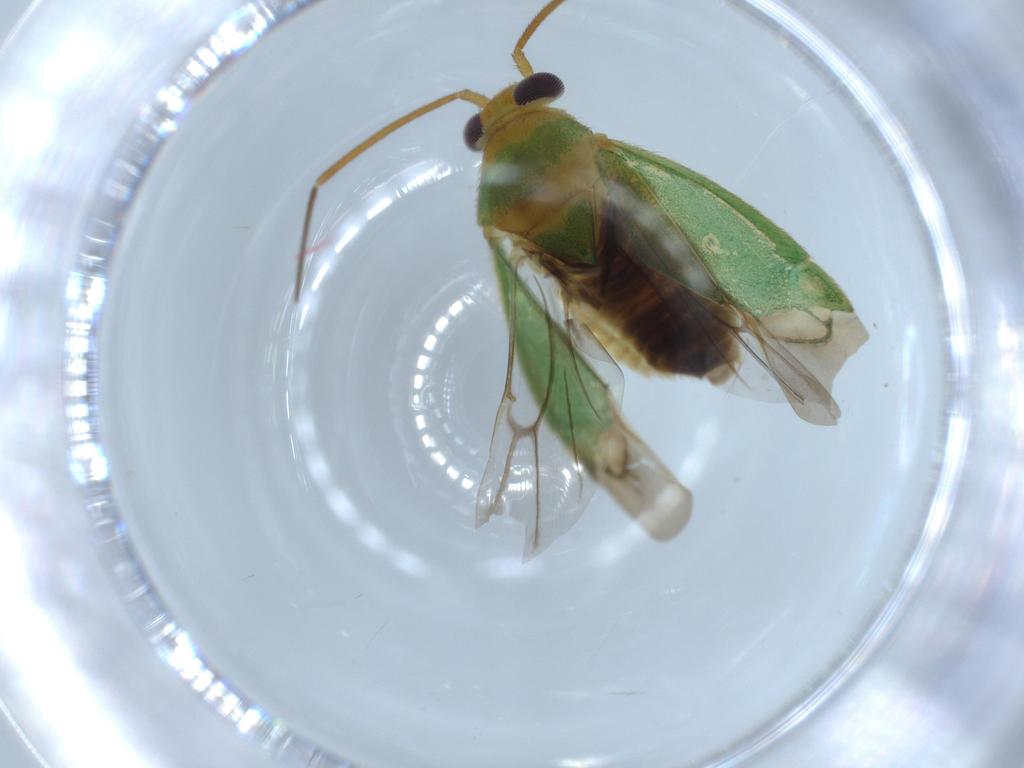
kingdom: Animalia
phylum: Arthropoda
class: Insecta
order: Hemiptera
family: Miridae
